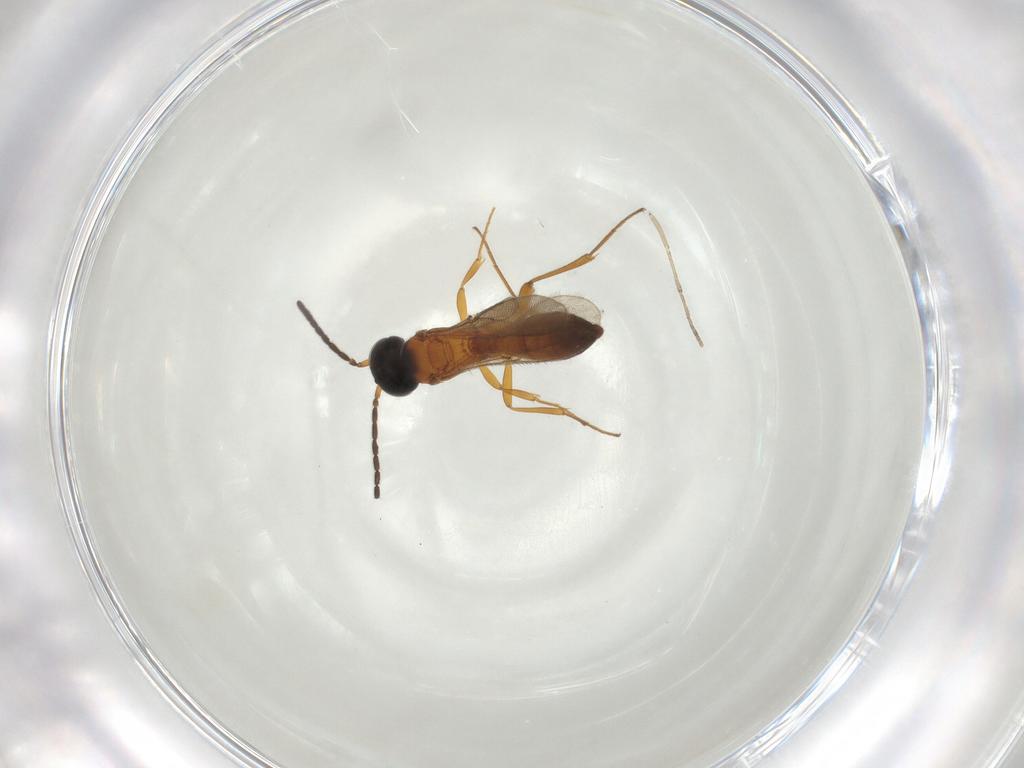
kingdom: Animalia
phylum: Arthropoda
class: Insecta
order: Hymenoptera
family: Scelionidae
